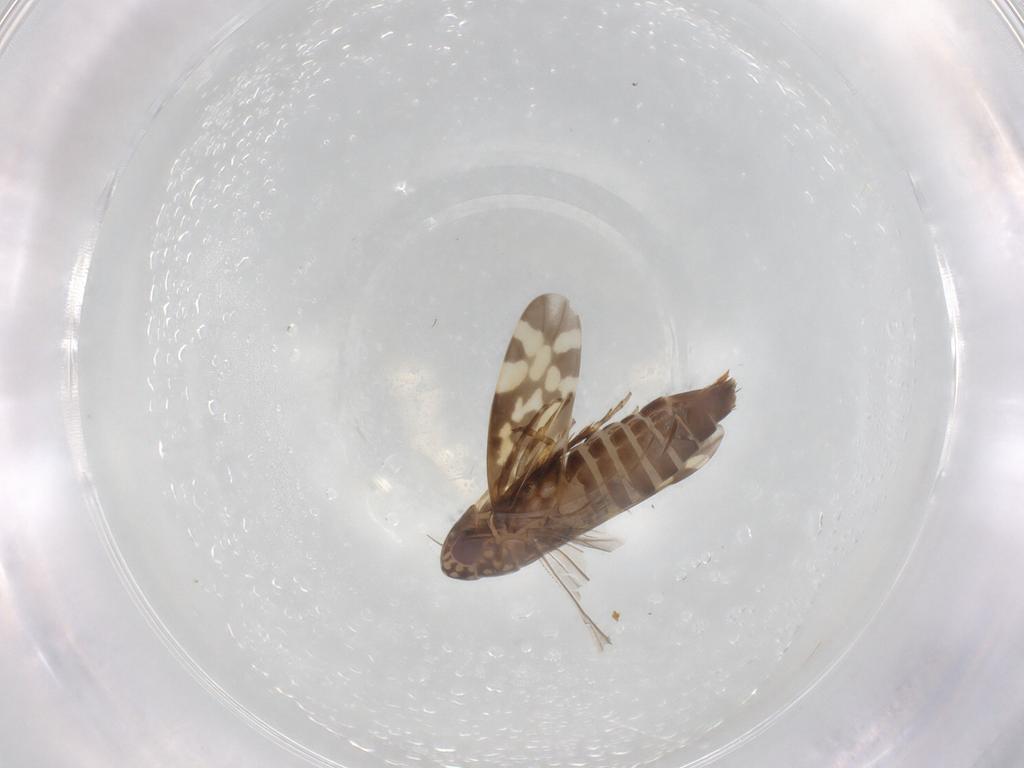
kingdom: Animalia
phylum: Arthropoda
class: Insecta
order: Hemiptera
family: Cicadellidae
